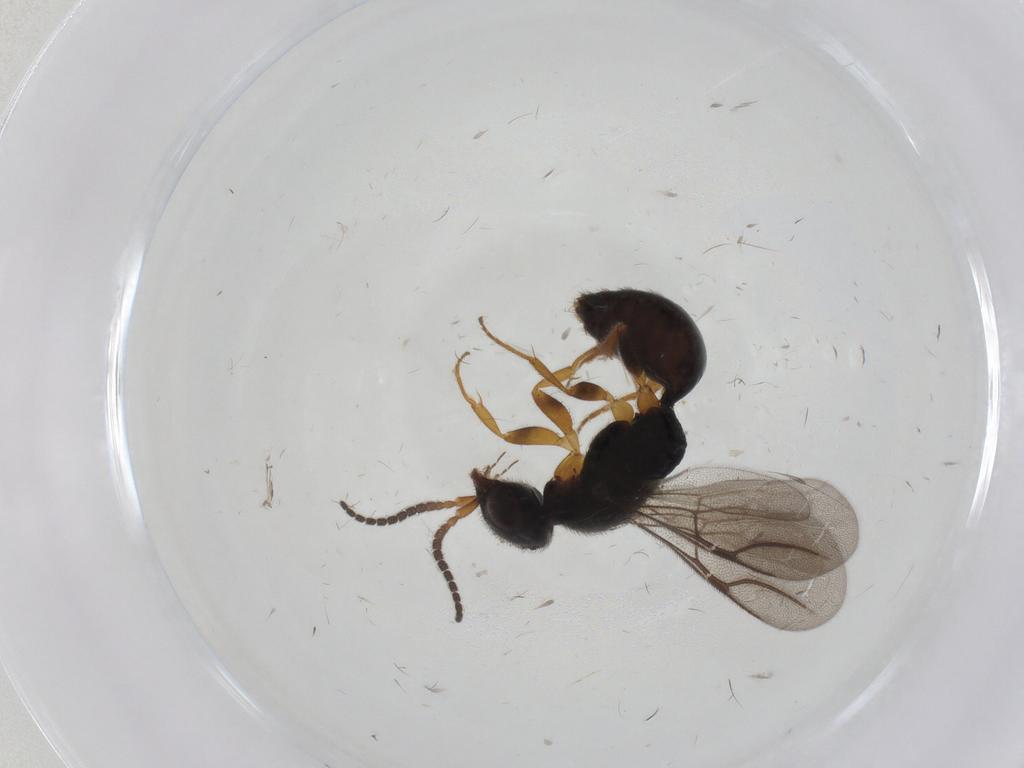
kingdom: Animalia
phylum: Arthropoda
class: Insecta
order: Hymenoptera
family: Bethylidae
